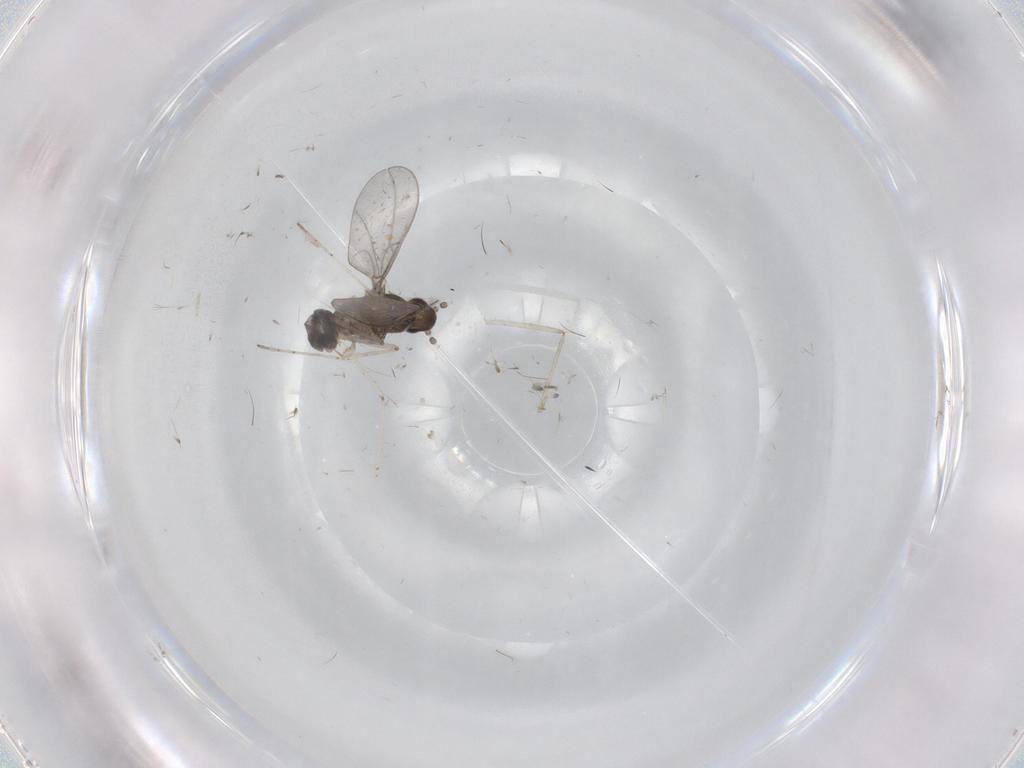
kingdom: Animalia
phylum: Arthropoda
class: Insecta
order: Diptera
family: Cecidomyiidae
